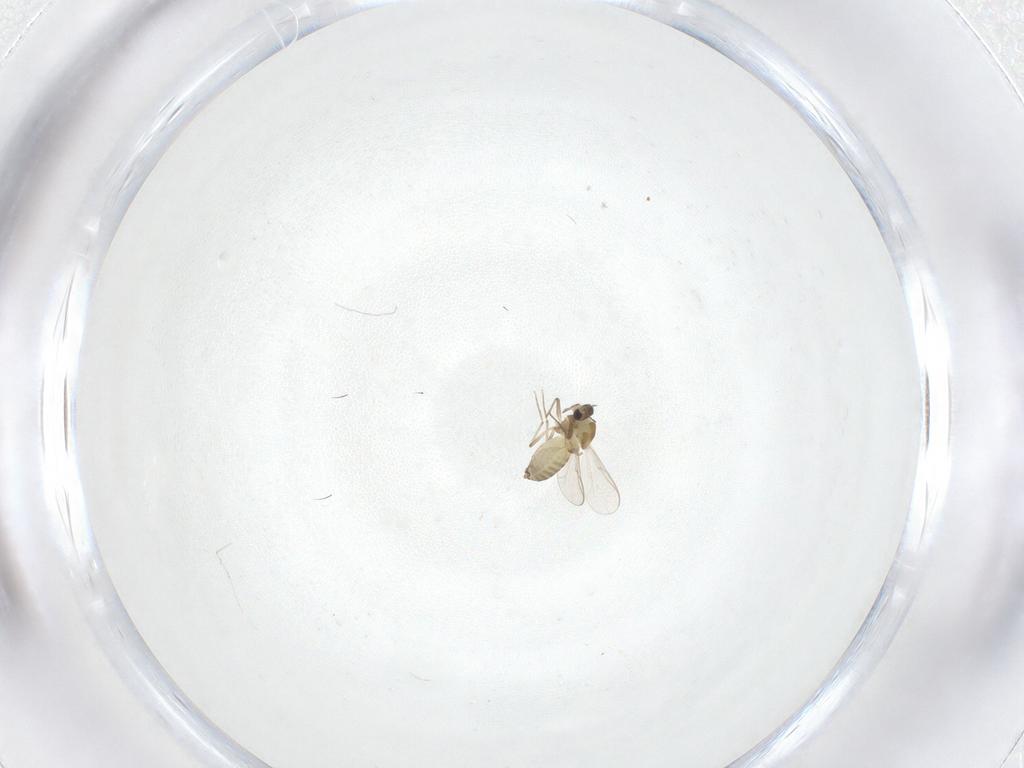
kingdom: Animalia
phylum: Arthropoda
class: Insecta
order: Diptera
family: Chironomidae
